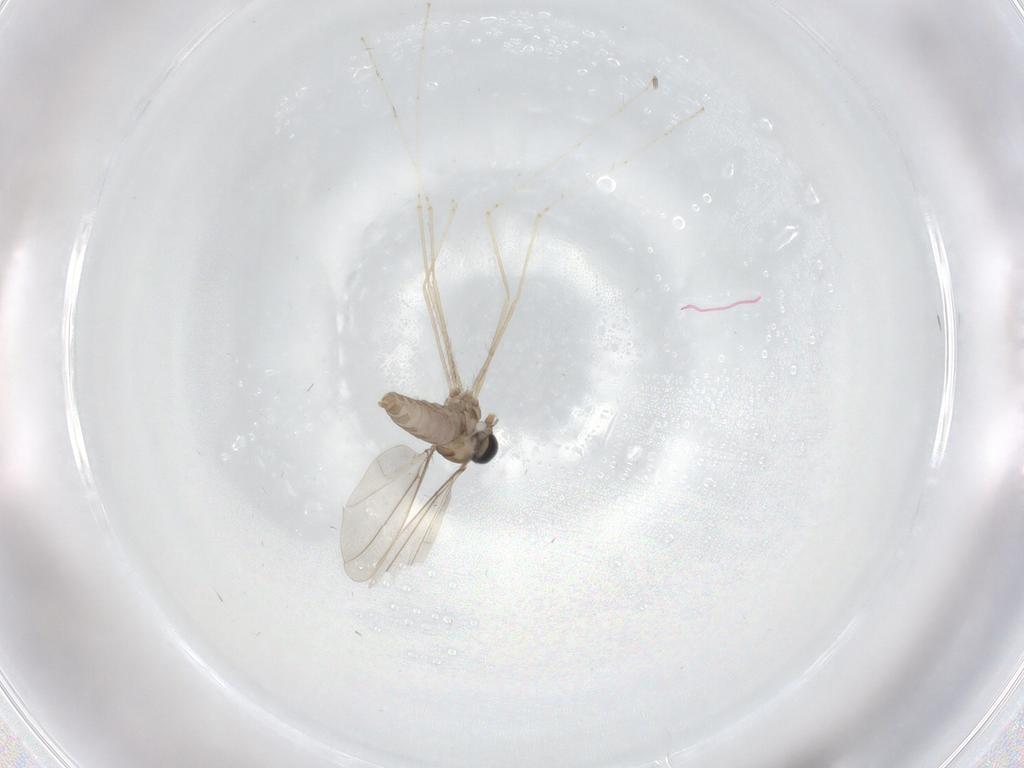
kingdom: Animalia
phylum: Arthropoda
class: Insecta
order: Diptera
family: Cecidomyiidae
